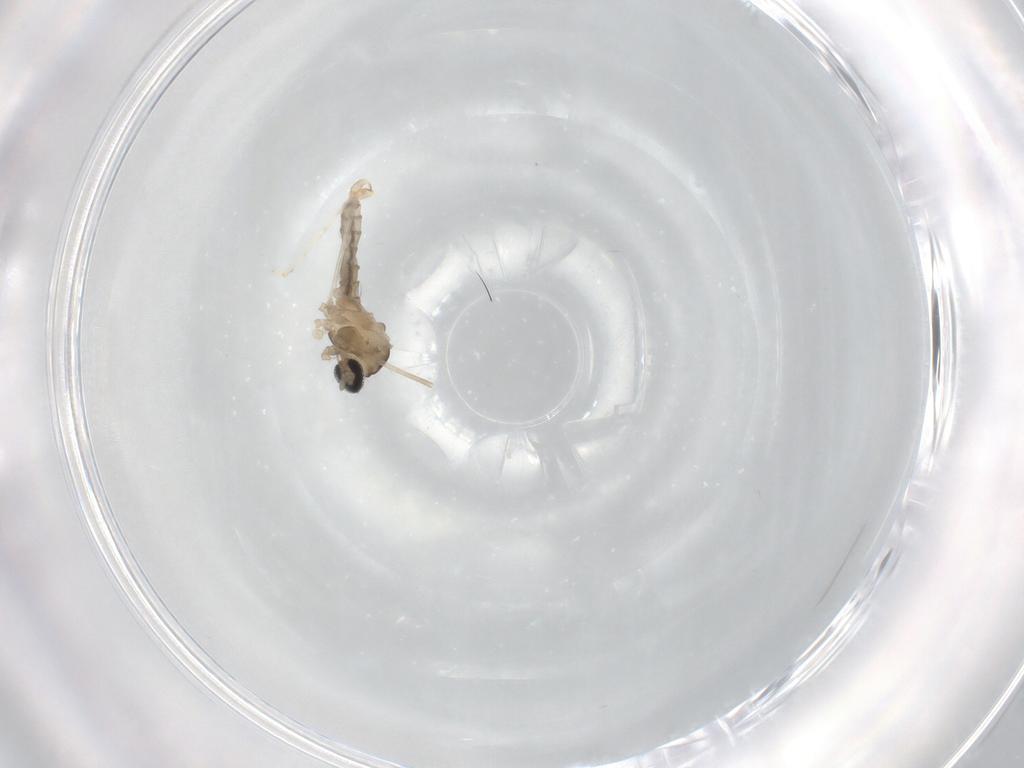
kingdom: Animalia
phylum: Arthropoda
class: Insecta
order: Diptera
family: Cecidomyiidae
